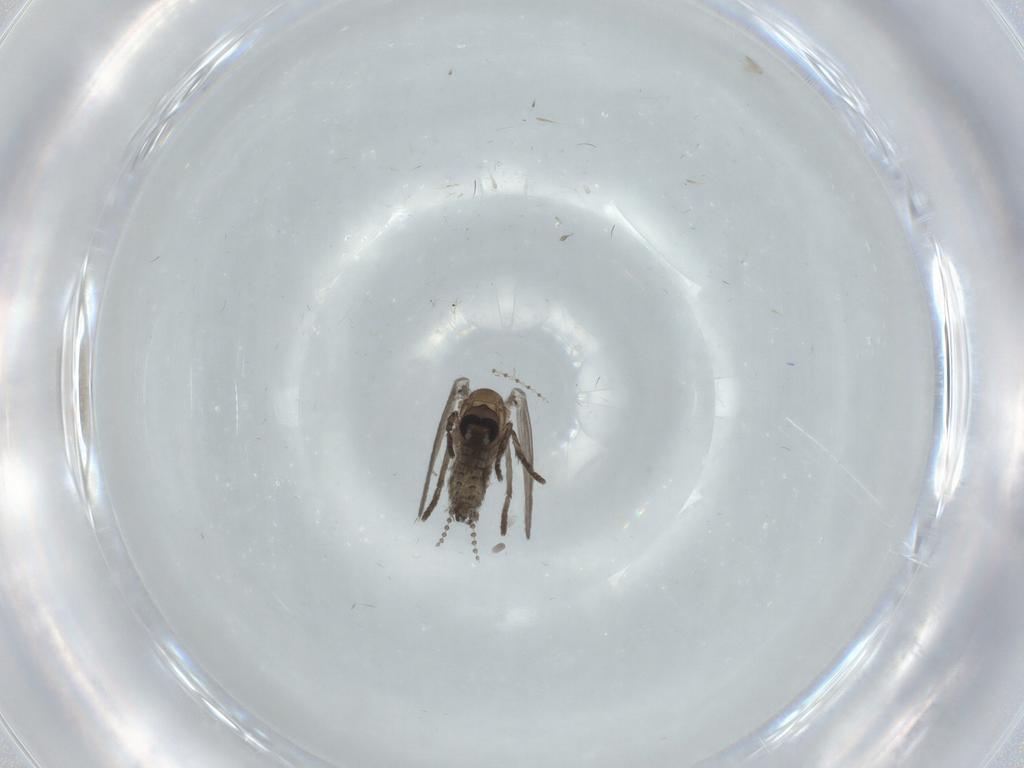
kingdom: Animalia
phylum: Arthropoda
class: Insecta
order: Diptera
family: Psychodidae
